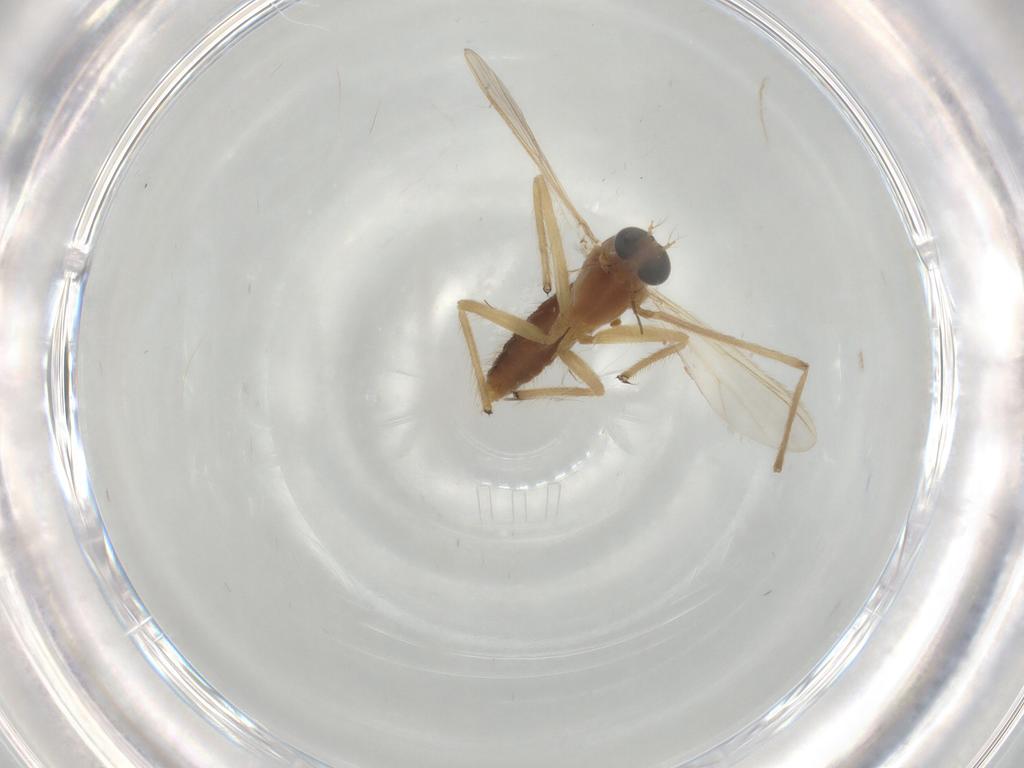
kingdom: Animalia
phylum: Arthropoda
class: Insecta
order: Diptera
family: Chironomidae
